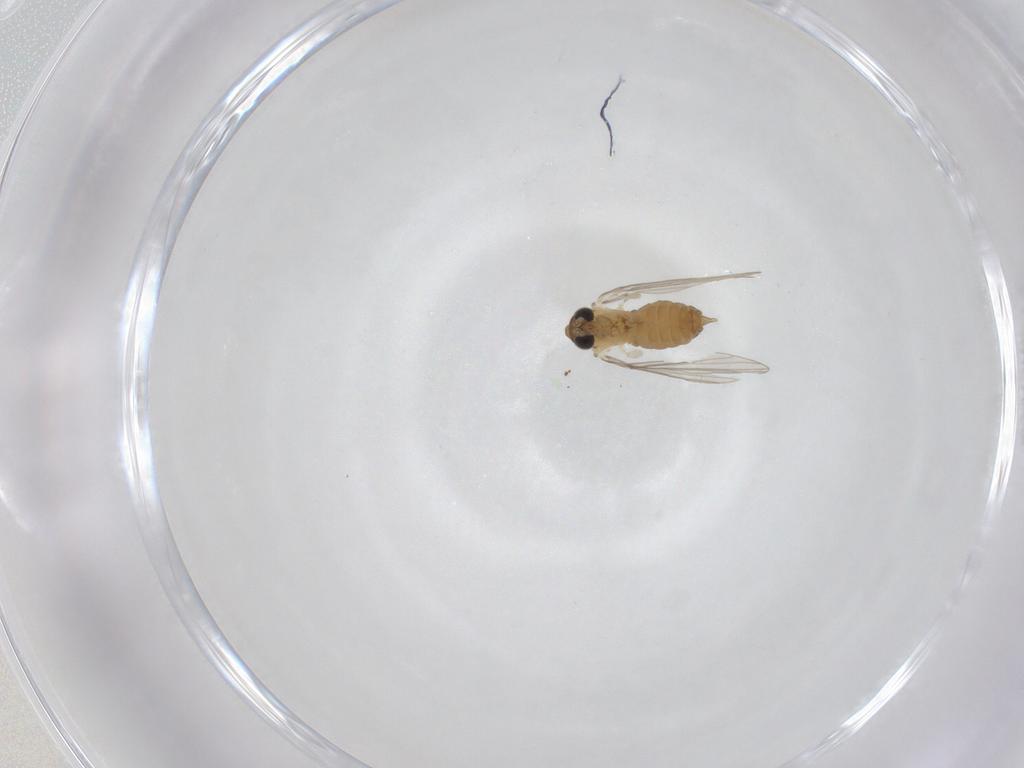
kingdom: Animalia
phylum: Arthropoda
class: Insecta
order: Diptera
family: Stratiomyidae
